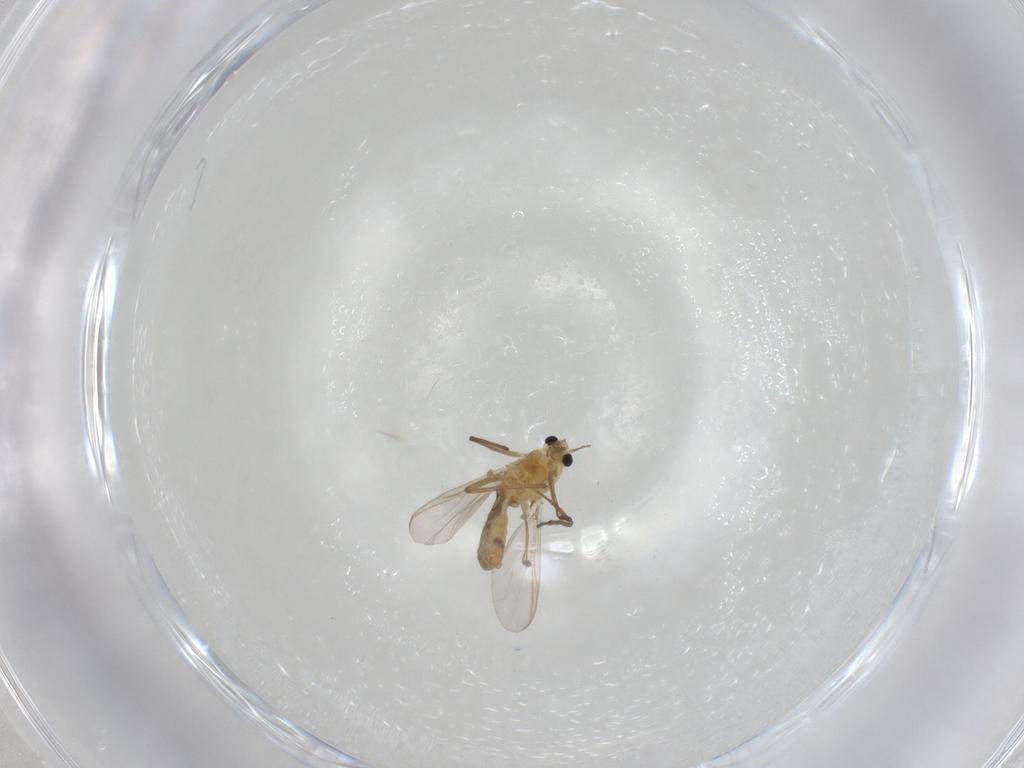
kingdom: Animalia
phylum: Arthropoda
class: Insecta
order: Diptera
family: Chironomidae
